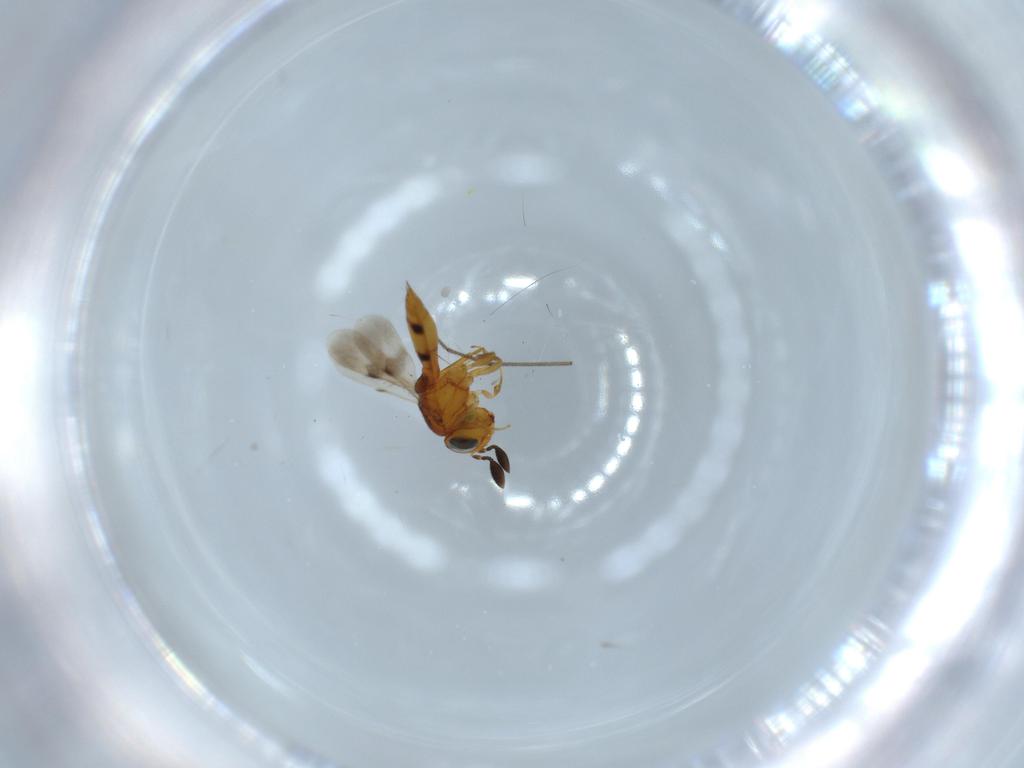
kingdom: Animalia
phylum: Arthropoda
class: Insecta
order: Hymenoptera
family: Scelionidae
